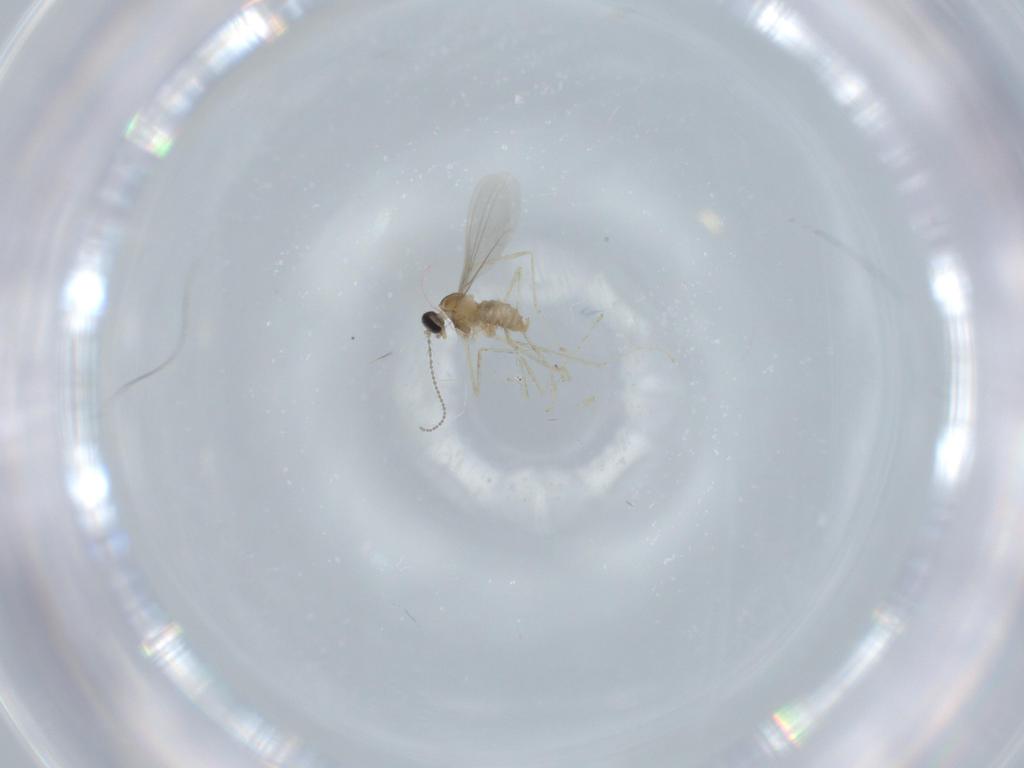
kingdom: Animalia
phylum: Arthropoda
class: Insecta
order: Diptera
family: Cecidomyiidae
